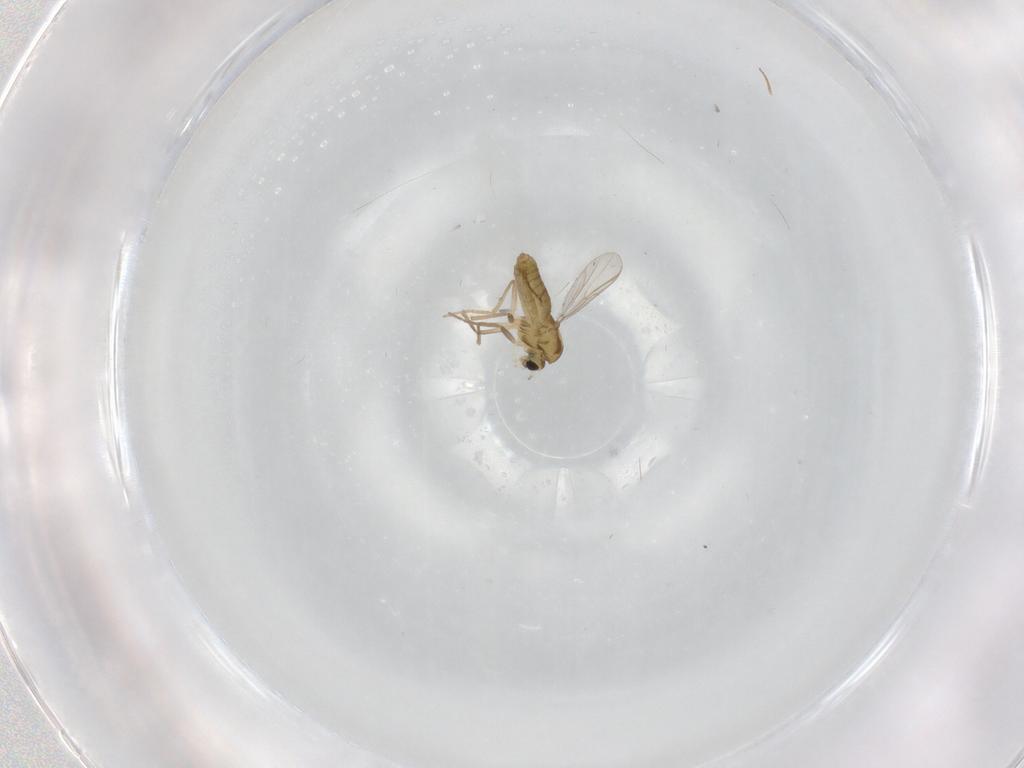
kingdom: Animalia
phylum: Arthropoda
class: Insecta
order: Diptera
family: Chironomidae
